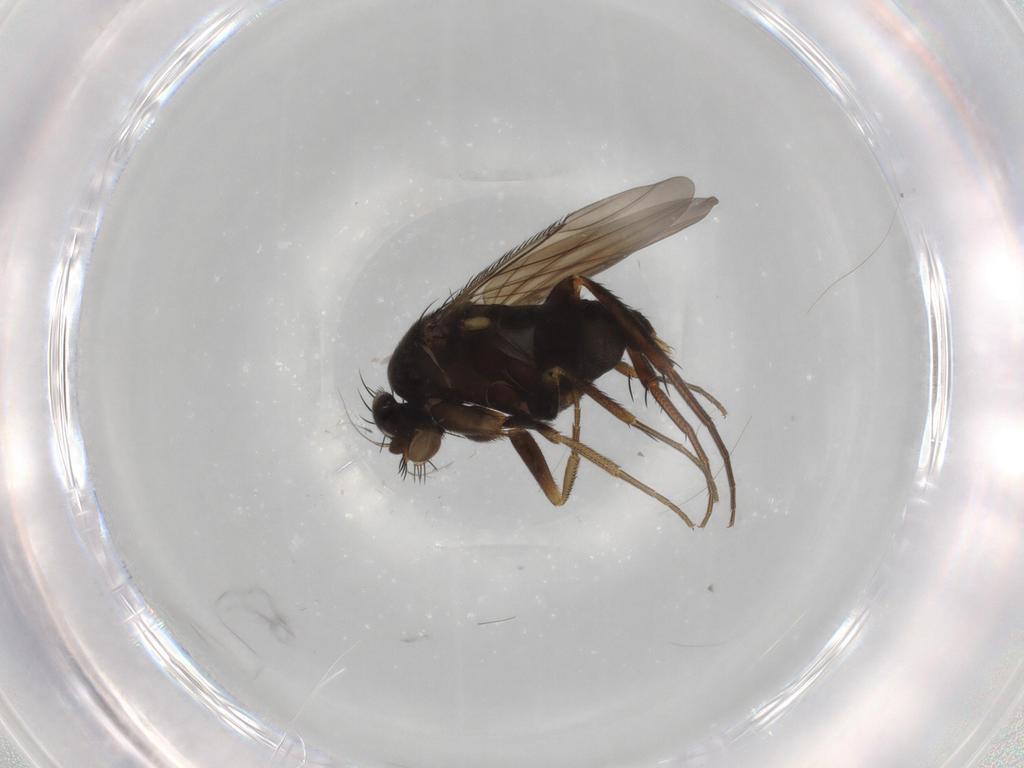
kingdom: Animalia
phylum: Arthropoda
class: Insecta
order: Diptera
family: Phoridae
